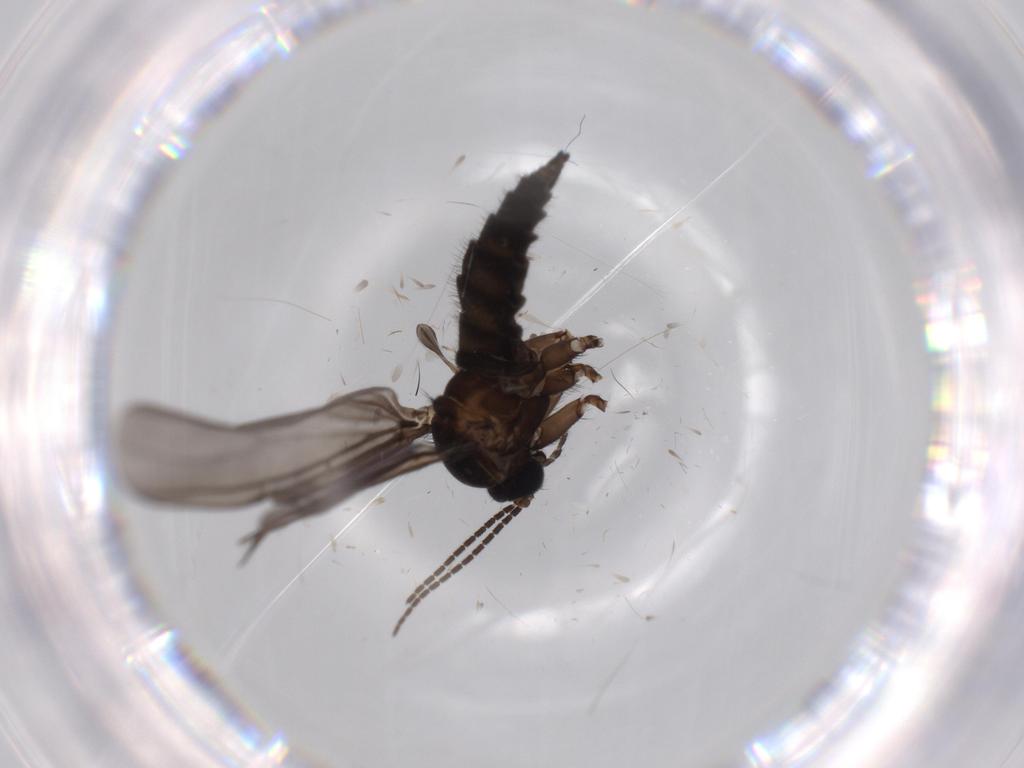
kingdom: Animalia
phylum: Arthropoda
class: Insecta
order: Diptera
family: Sciaridae
